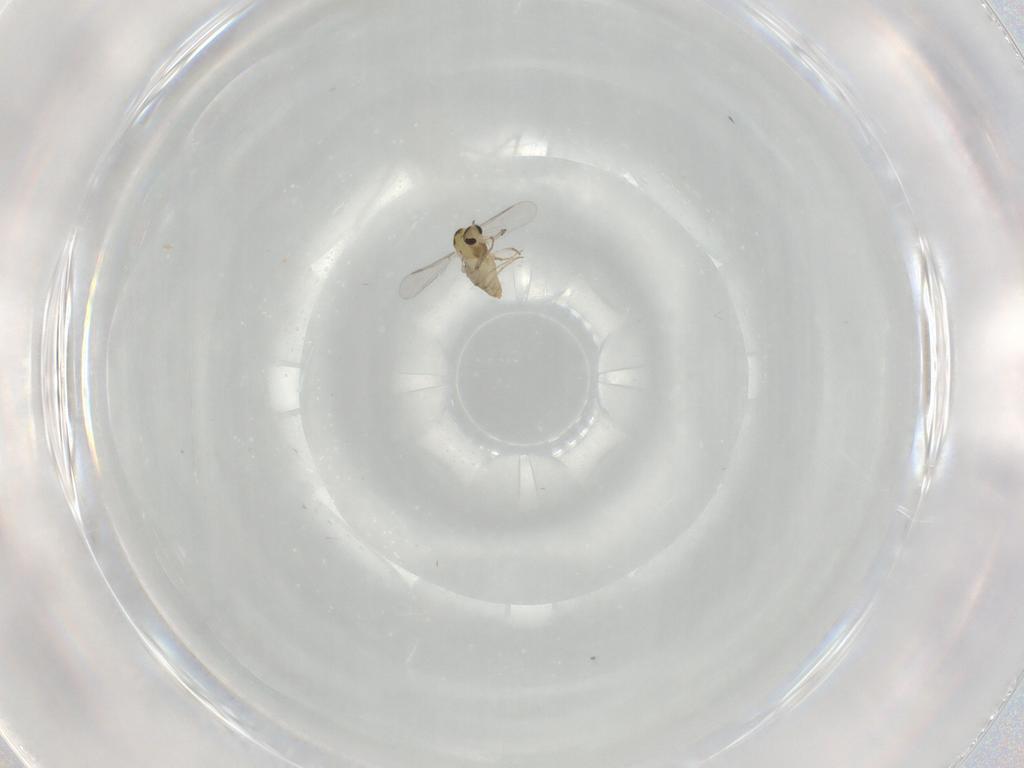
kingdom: Animalia
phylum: Arthropoda
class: Insecta
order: Diptera
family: Chironomidae
